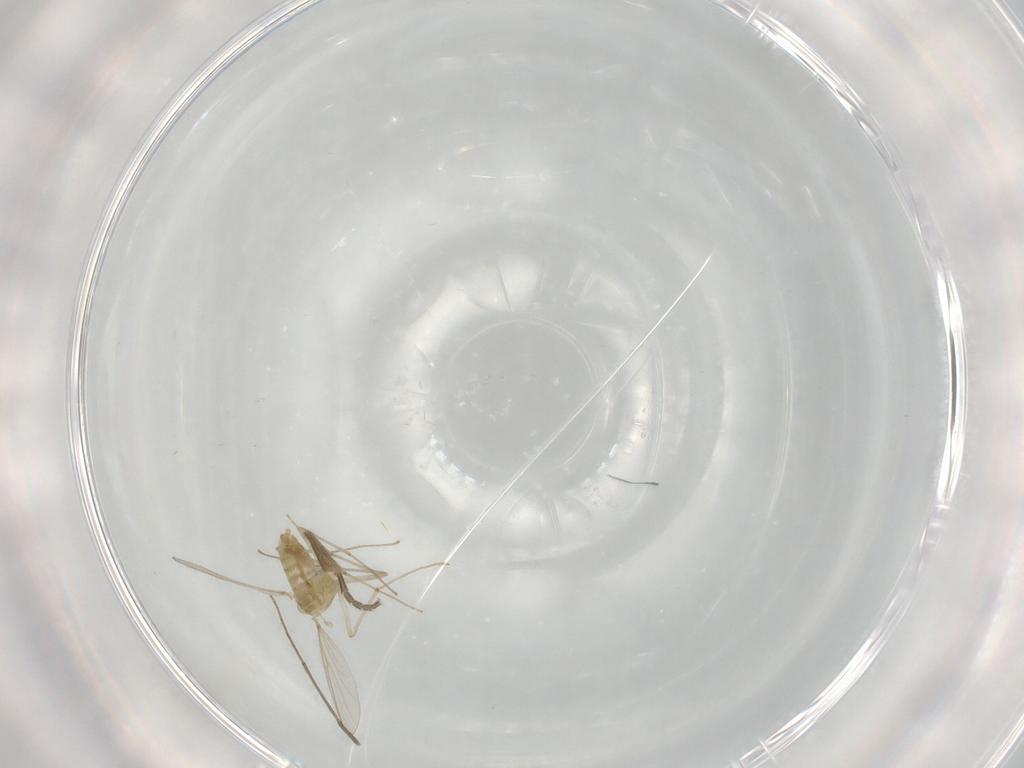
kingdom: Animalia
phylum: Arthropoda
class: Insecta
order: Diptera
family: Chironomidae
